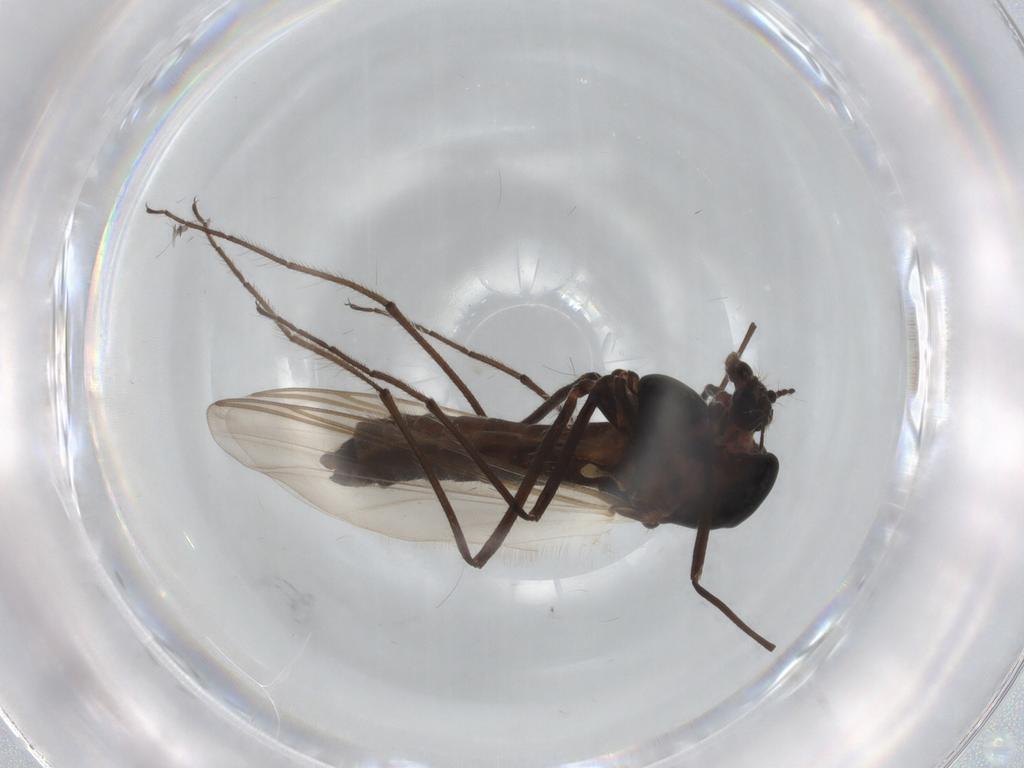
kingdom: Animalia
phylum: Arthropoda
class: Insecta
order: Diptera
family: Chironomidae
